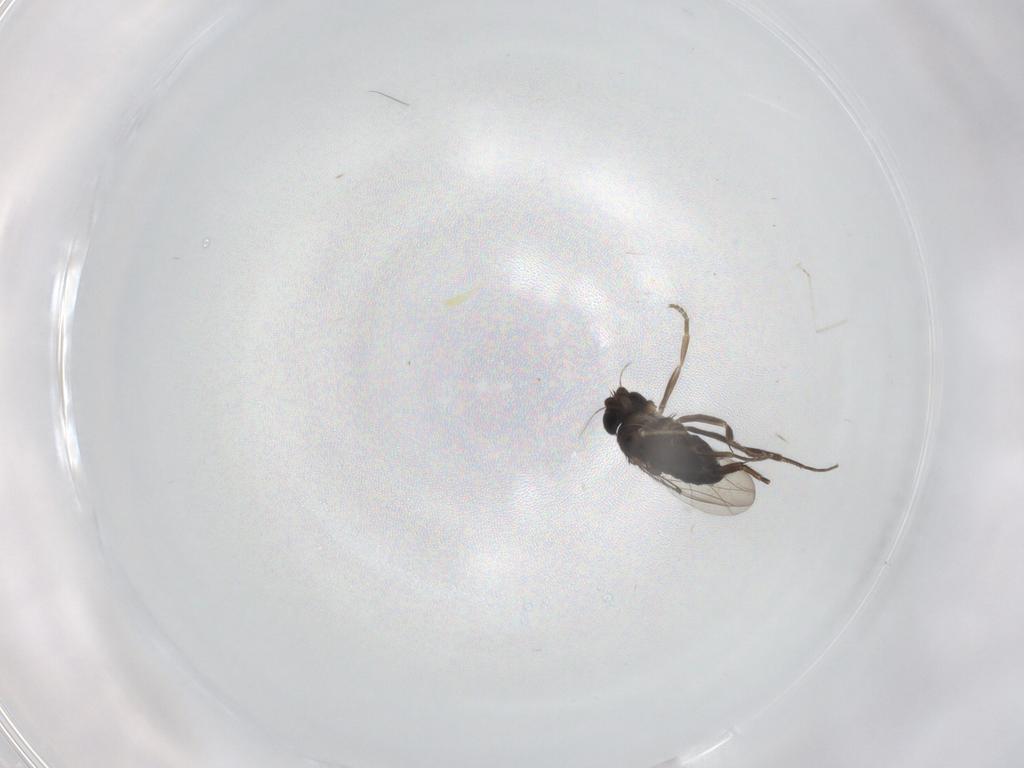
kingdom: Animalia
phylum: Arthropoda
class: Insecta
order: Diptera
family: Phoridae
